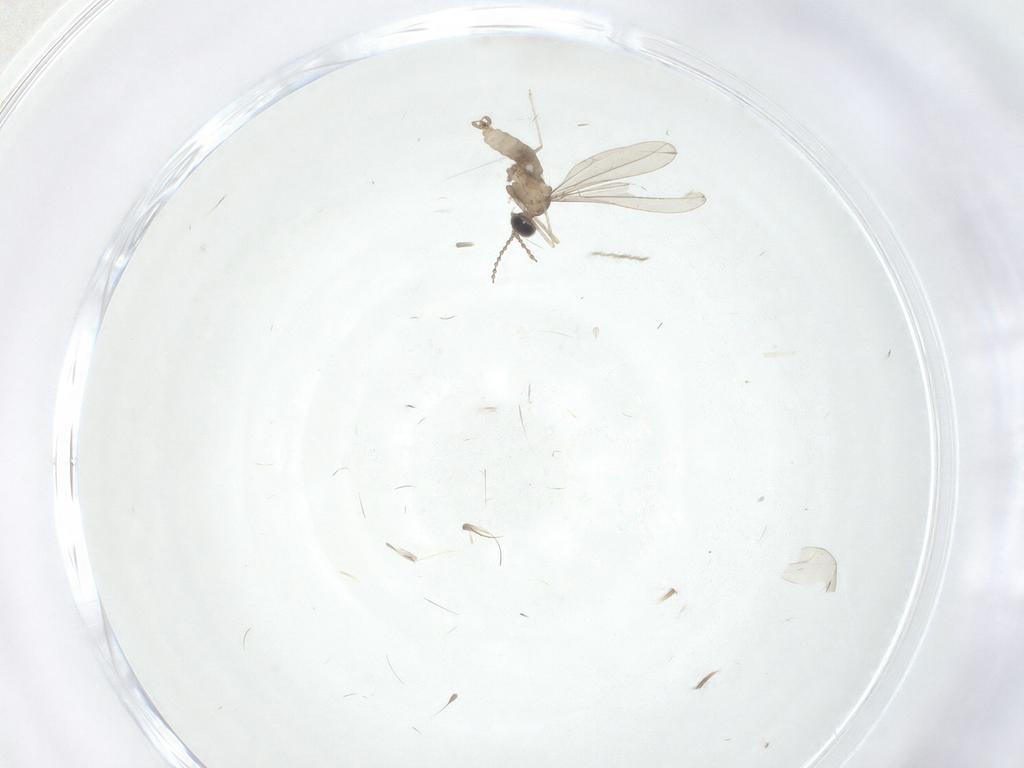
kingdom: Animalia
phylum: Arthropoda
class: Insecta
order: Diptera
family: Cecidomyiidae
